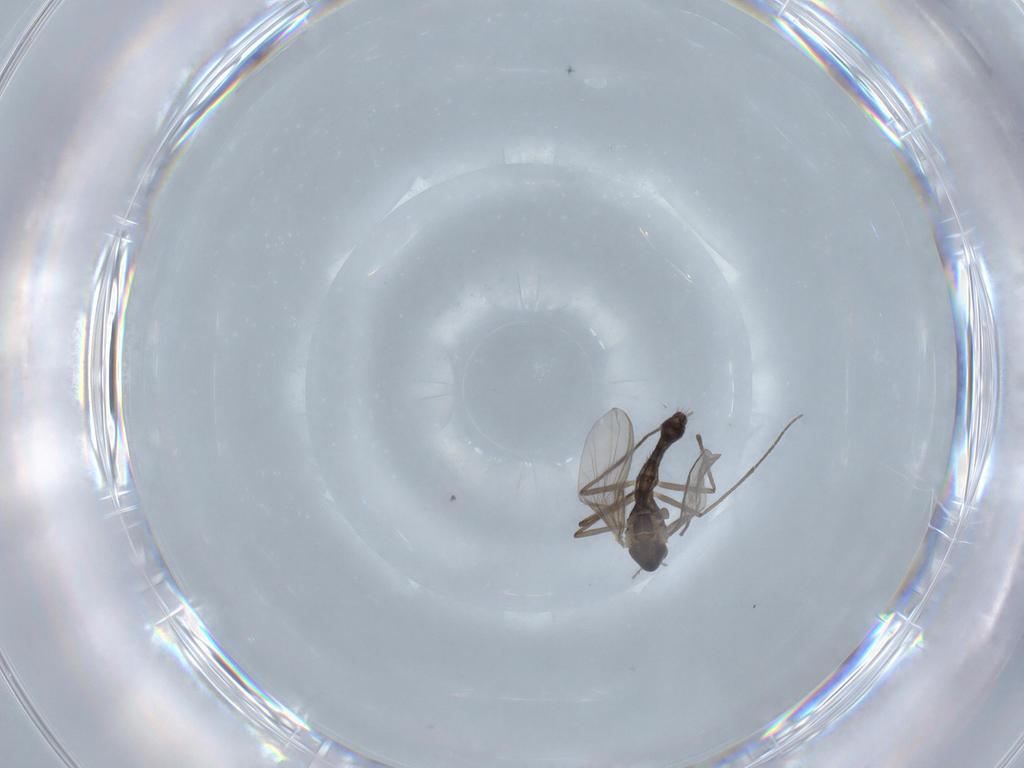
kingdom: Animalia
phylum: Arthropoda
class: Insecta
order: Diptera
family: Chironomidae
